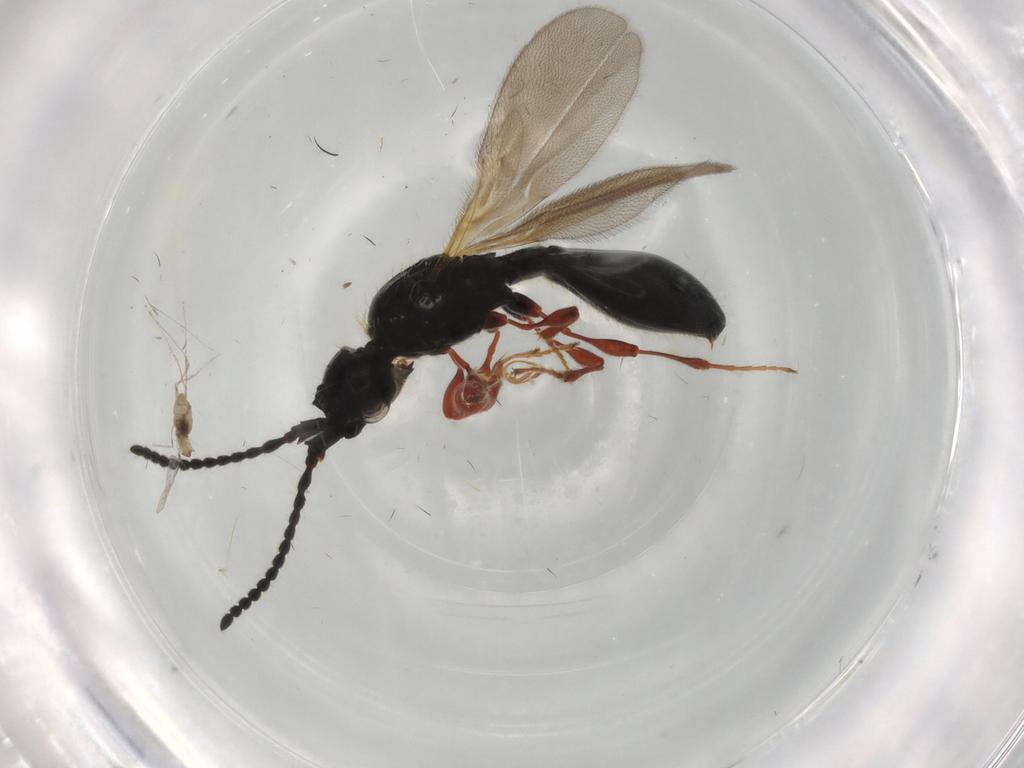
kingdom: Animalia
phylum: Arthropoda
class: Insecta
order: Hymenoptera
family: Diapriidae
